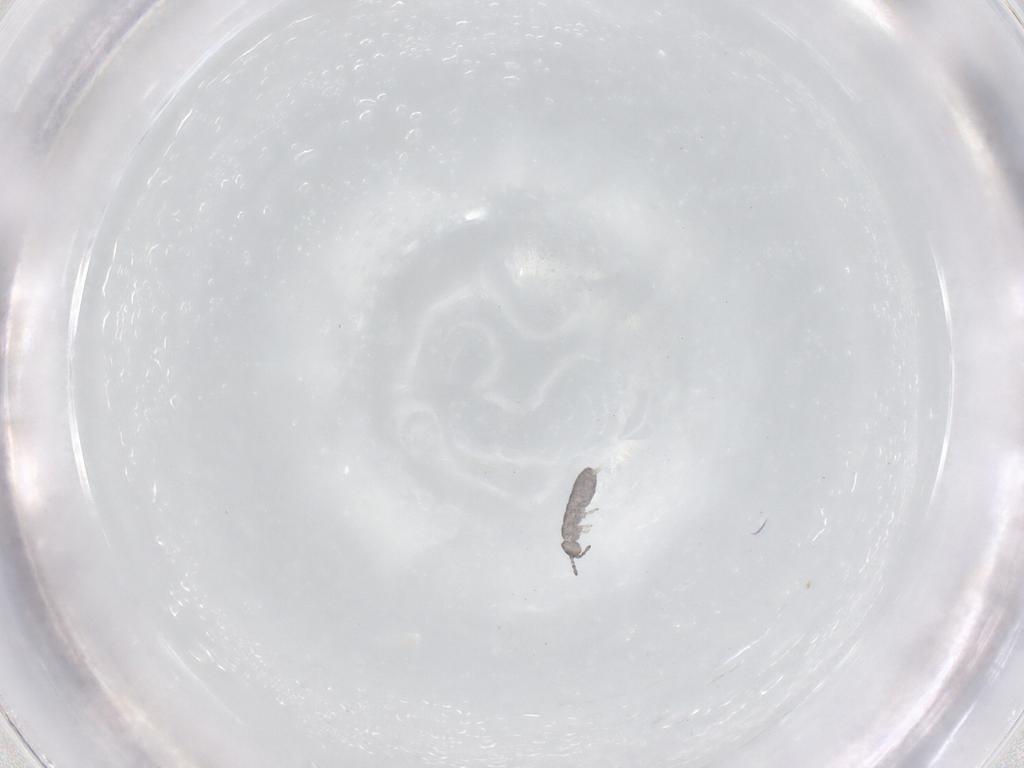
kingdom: Animalia
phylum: Arthropoda
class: Collembola
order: Entomobryomorpha
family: Isotomidae
